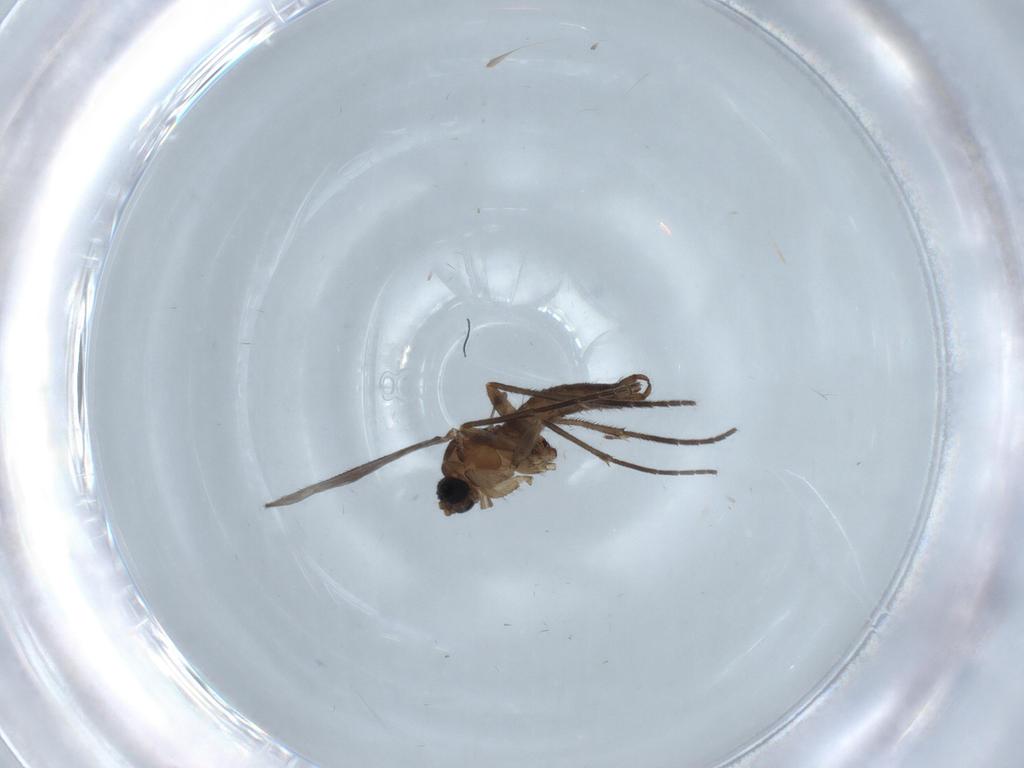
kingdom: Animalia
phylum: Arthropoda
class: Insecta
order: Diptera
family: Sciaridae
